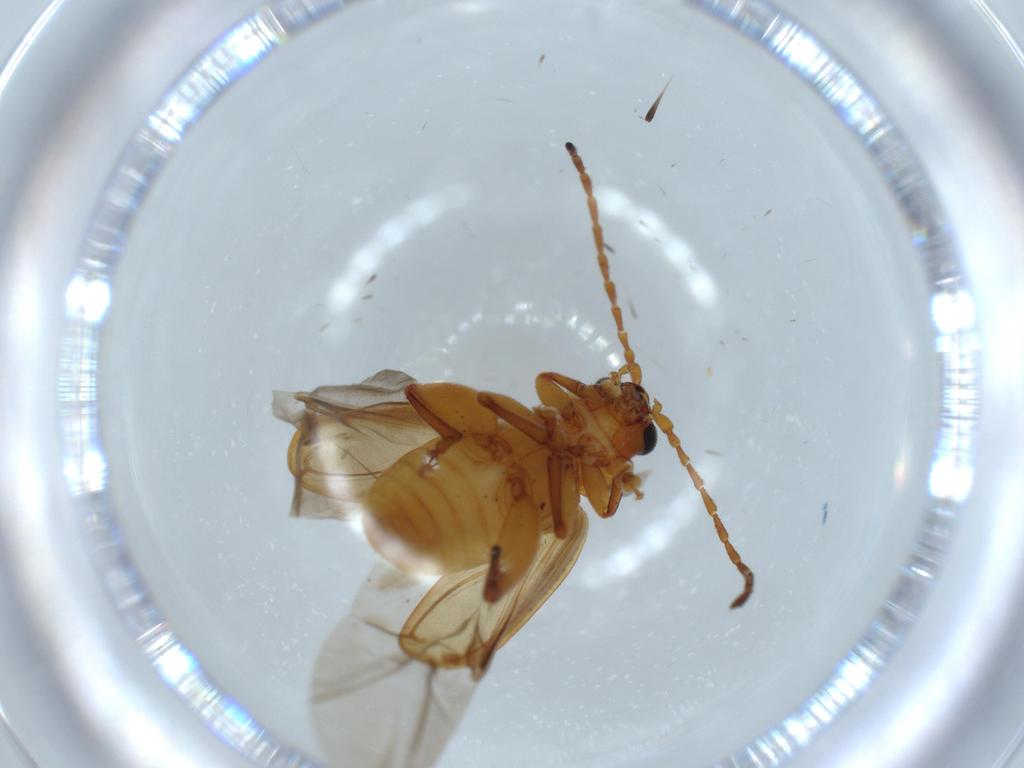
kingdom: Animalia
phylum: Arthropoda
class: Insecta
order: Coleoptera
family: Chrysomelidae
